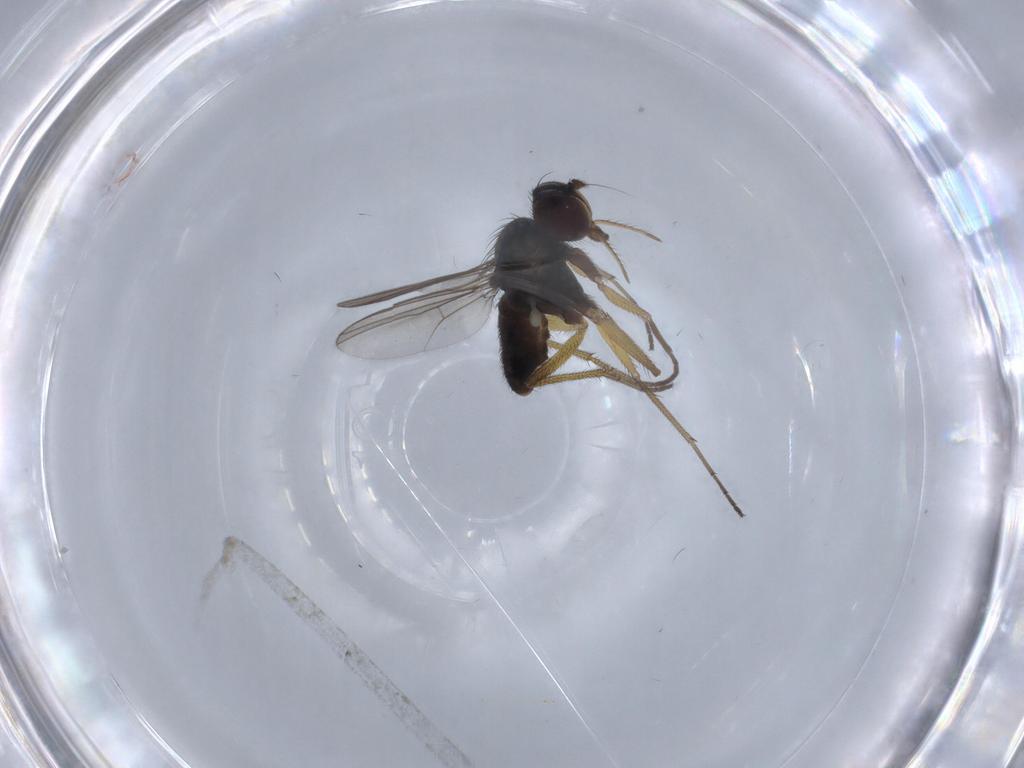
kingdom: Animalia
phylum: Arthropoda
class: Insecta
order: Diptera
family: Dolichopodidae
